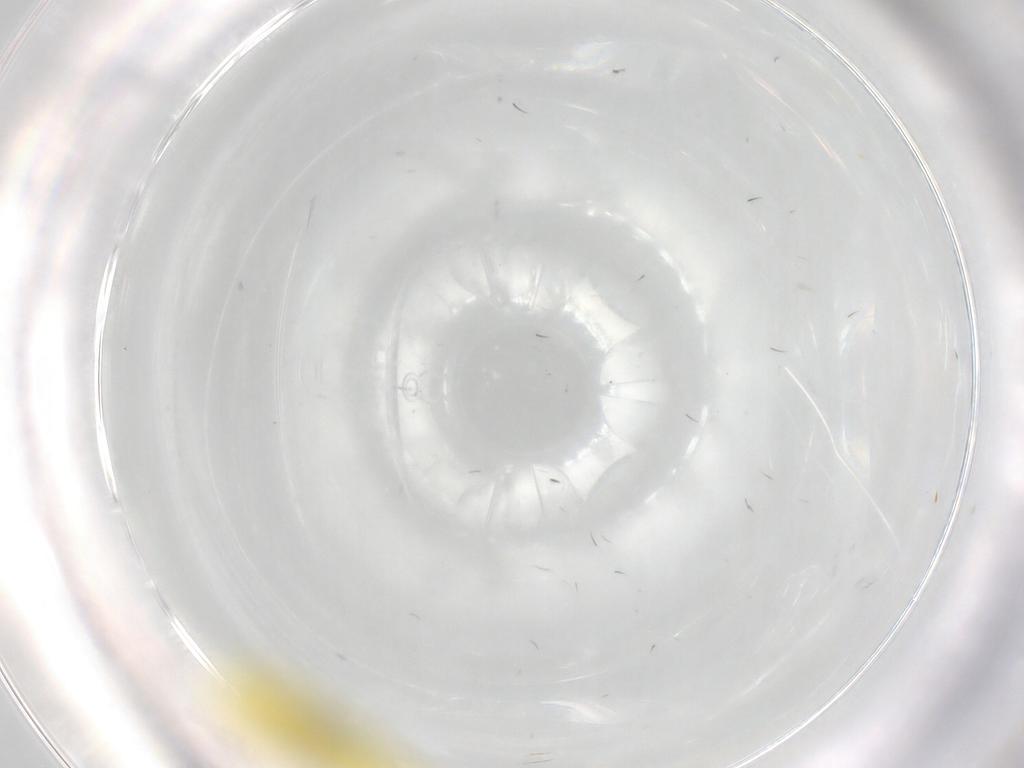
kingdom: Animalia
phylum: Arthropoda
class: Insecta
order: Hemiptera
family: Cicadellidae
